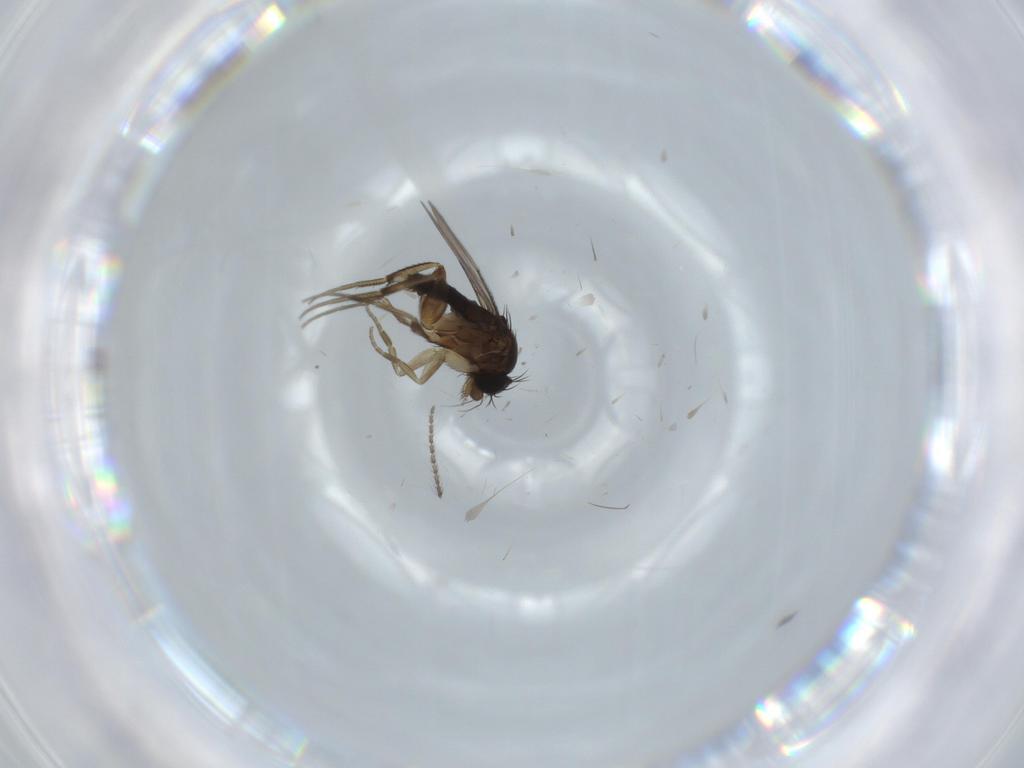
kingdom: Animalia
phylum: Arthropoda
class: Insecta
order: Diptera
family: Phoridae
